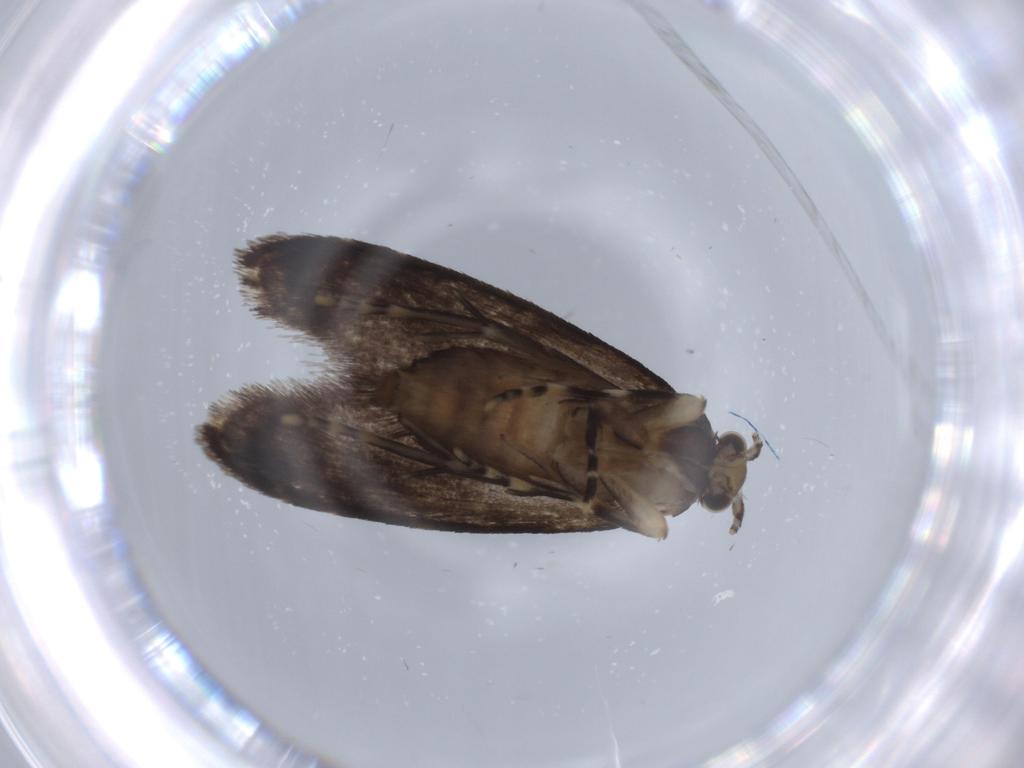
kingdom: Animalia
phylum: Arthropoda
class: Insecta
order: Lepidoptera
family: Tineidae
